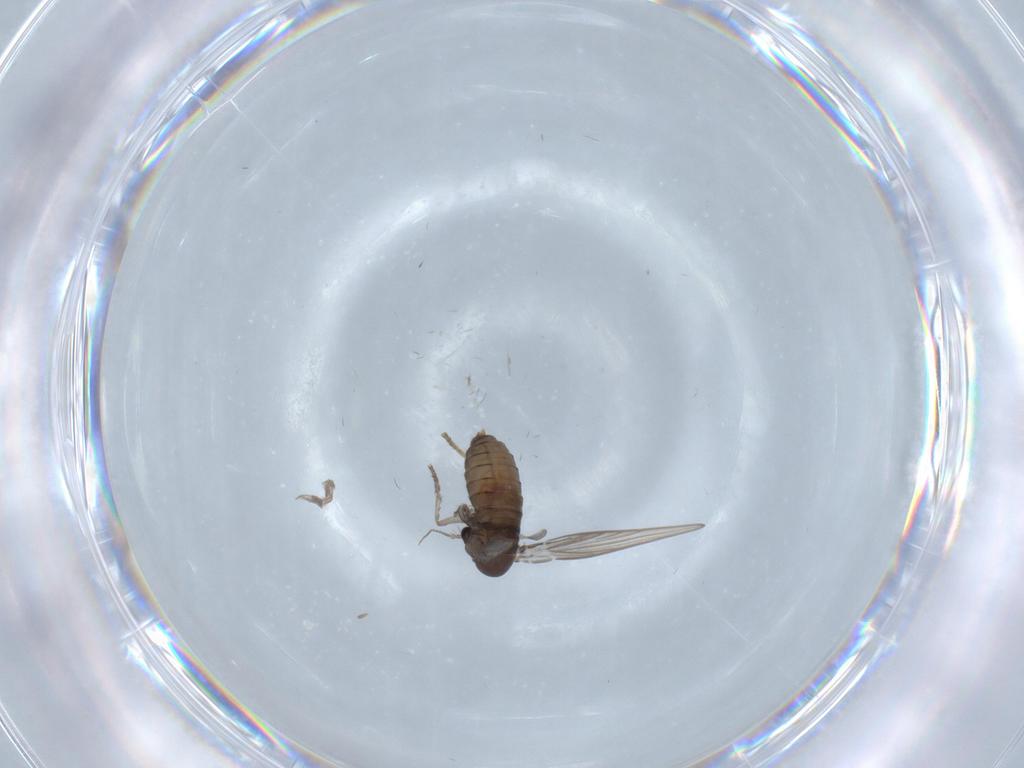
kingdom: Animalia
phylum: Arthropoda
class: Insecta
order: Diptera
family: Psychodidae
